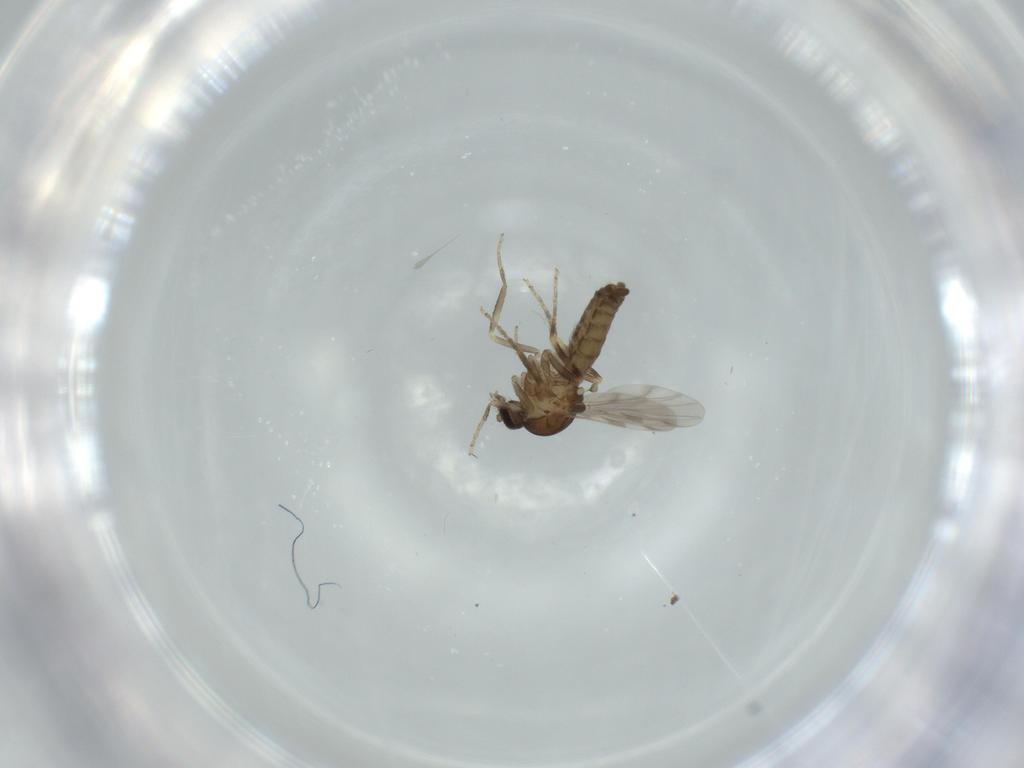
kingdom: Animalia
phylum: Arthropoda
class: Insecta
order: Diptera
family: Ceratopogonidae
